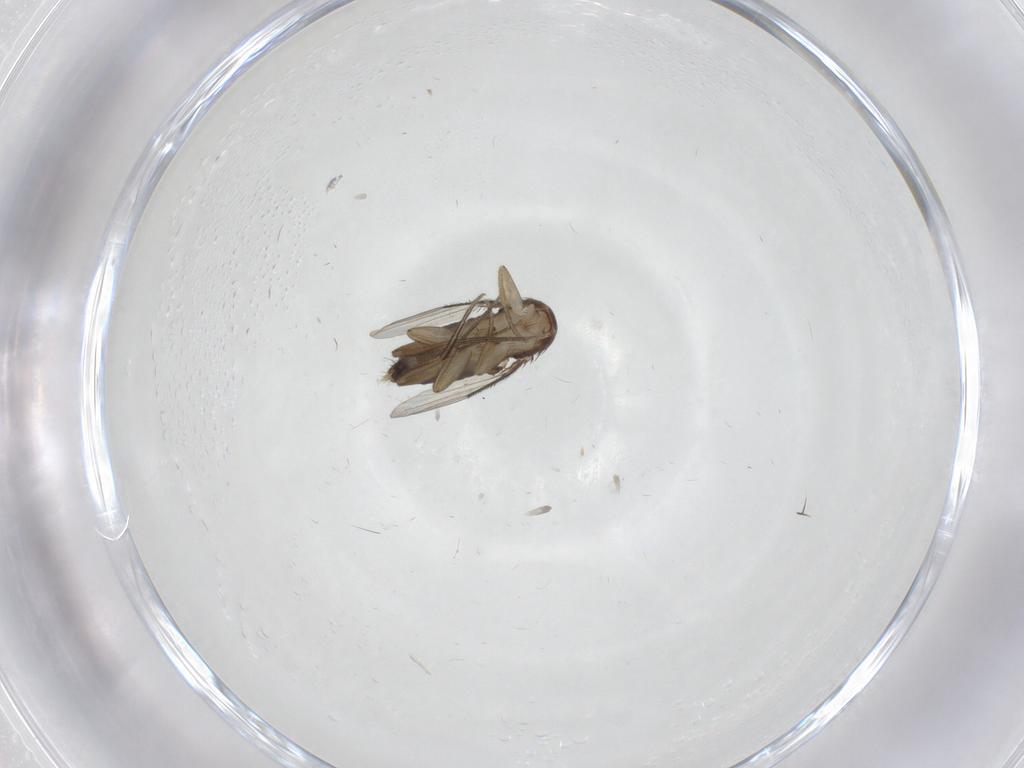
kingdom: Animalia
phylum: Arthropoda
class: Insecta
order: Diptera
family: Phoridae
